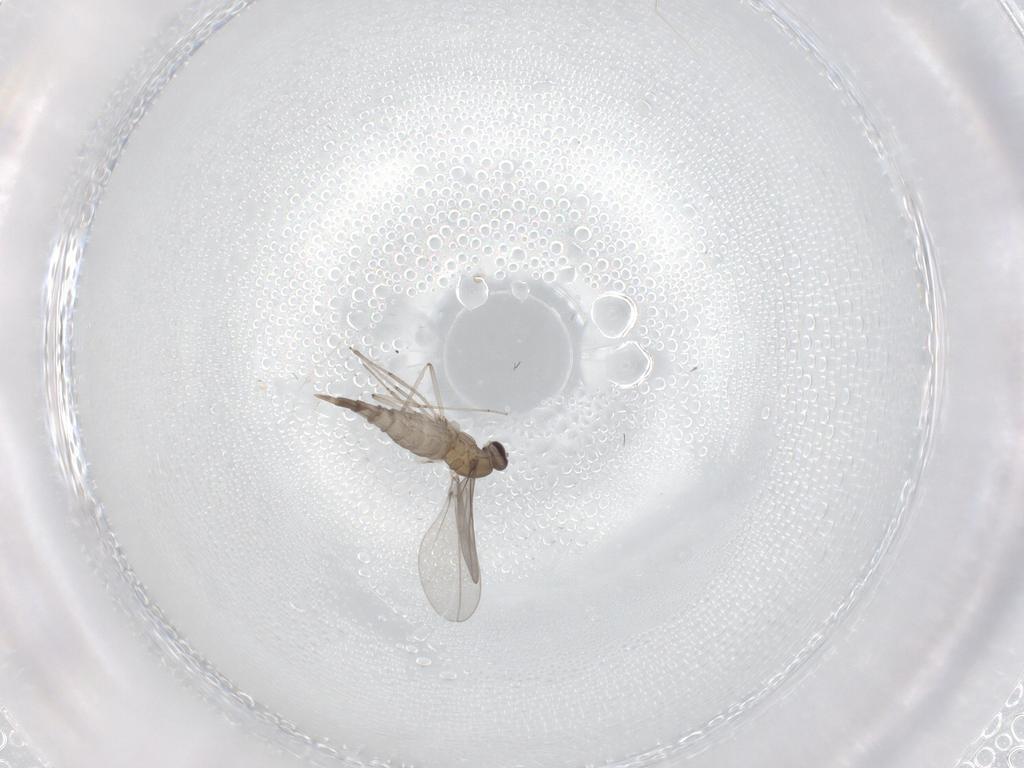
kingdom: Animalia
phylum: Arthropoda
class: Insecta
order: Diptera
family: Cecidomyiidae
